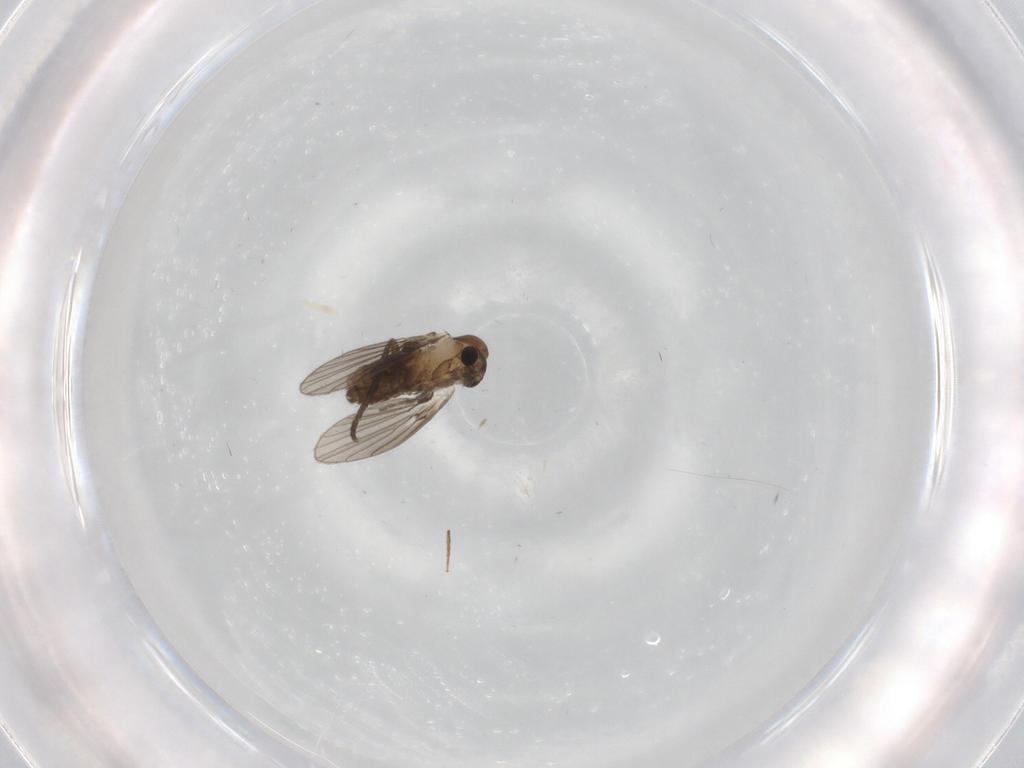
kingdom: Animalia
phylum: Arthropoda
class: Insecta
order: Diptera
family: Psychodidae
